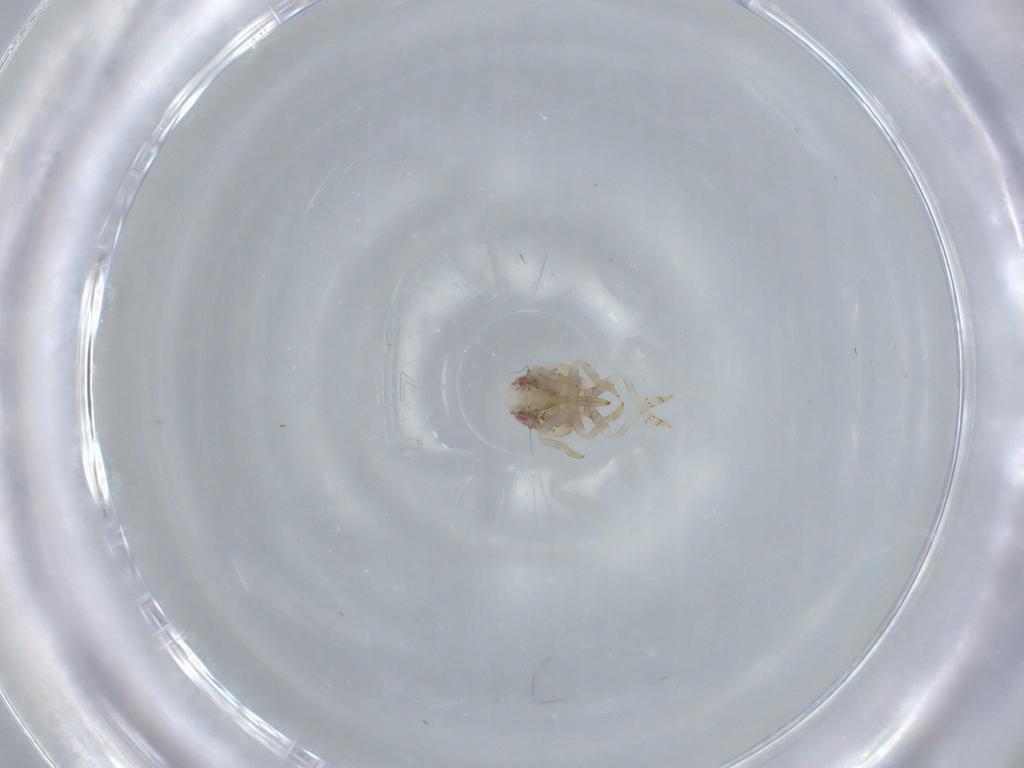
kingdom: Animalia
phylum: Arthropoda
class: Insecta
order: Hemiptera
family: Acanaloniidae
